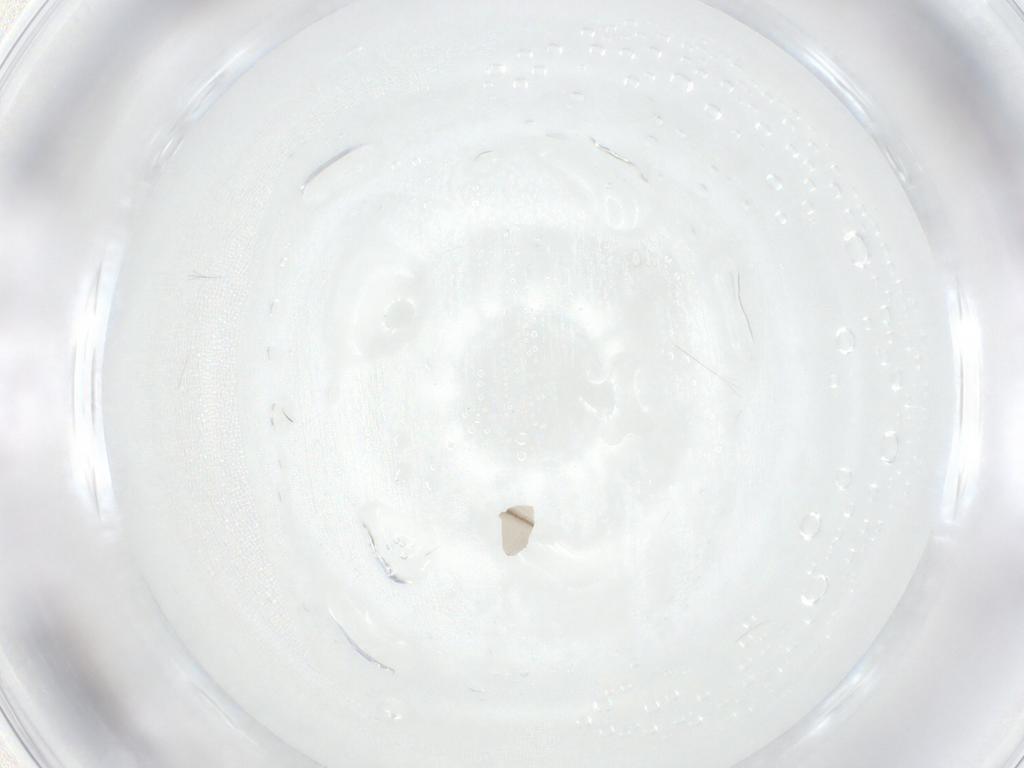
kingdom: Animalia
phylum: Arthropoda
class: Insecta
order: Diptera
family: Tipulidae
